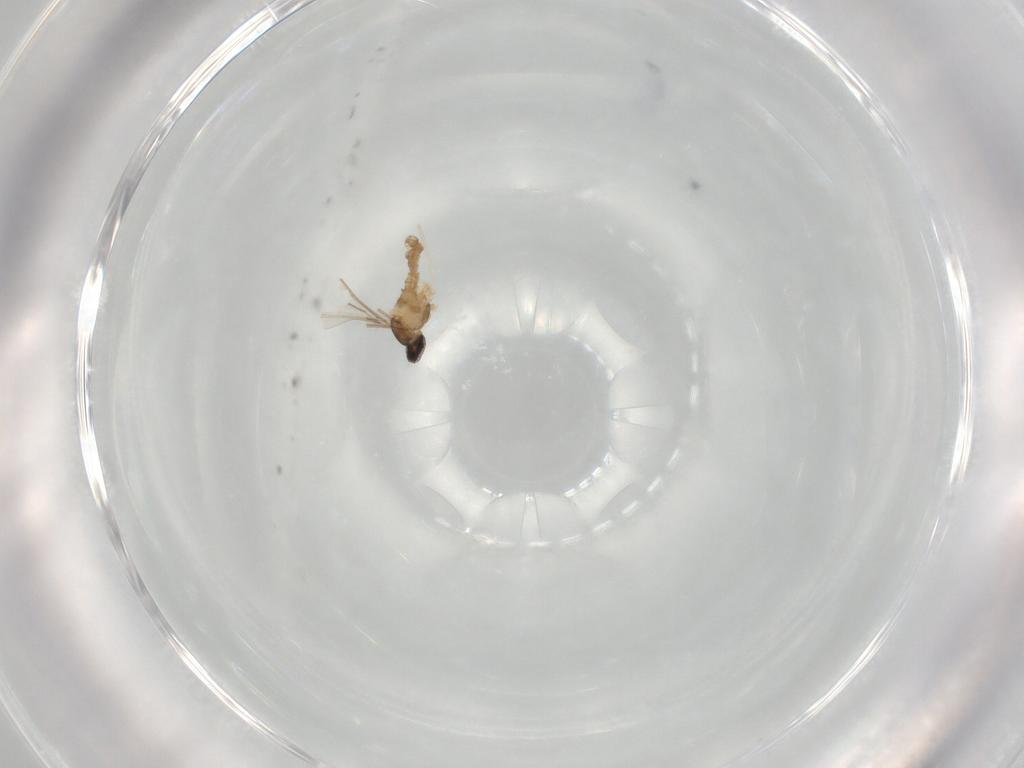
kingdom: Animalia
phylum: Arthropoda
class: Insecta
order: Diptera
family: Cecidomyiidae
